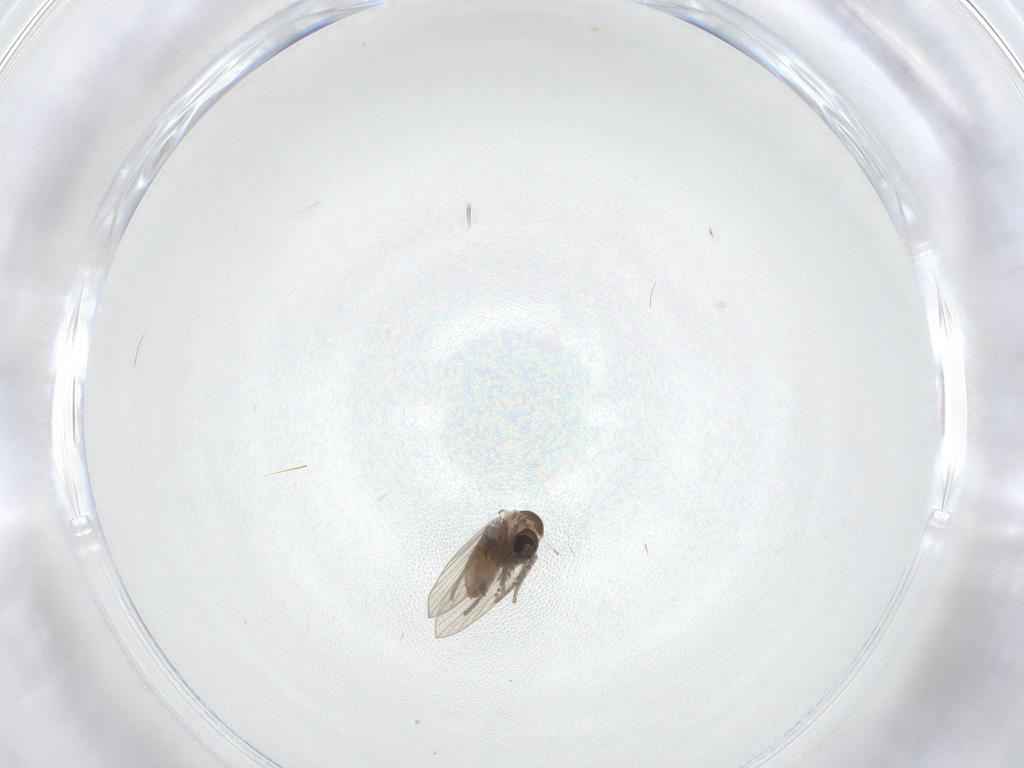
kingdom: Animalia
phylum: Arthropoda
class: Insecta
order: Diptera
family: Psychodidae
